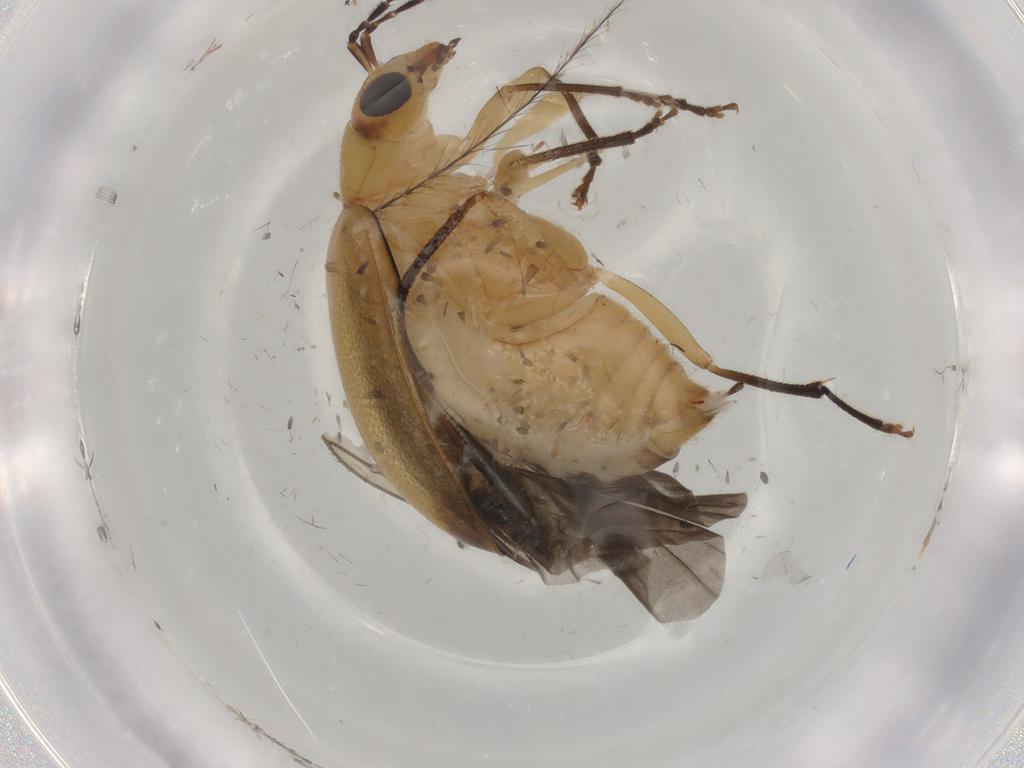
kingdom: Animalia
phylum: Arthropoda
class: Insecta
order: Coleoptera
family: Chrysomelidae
